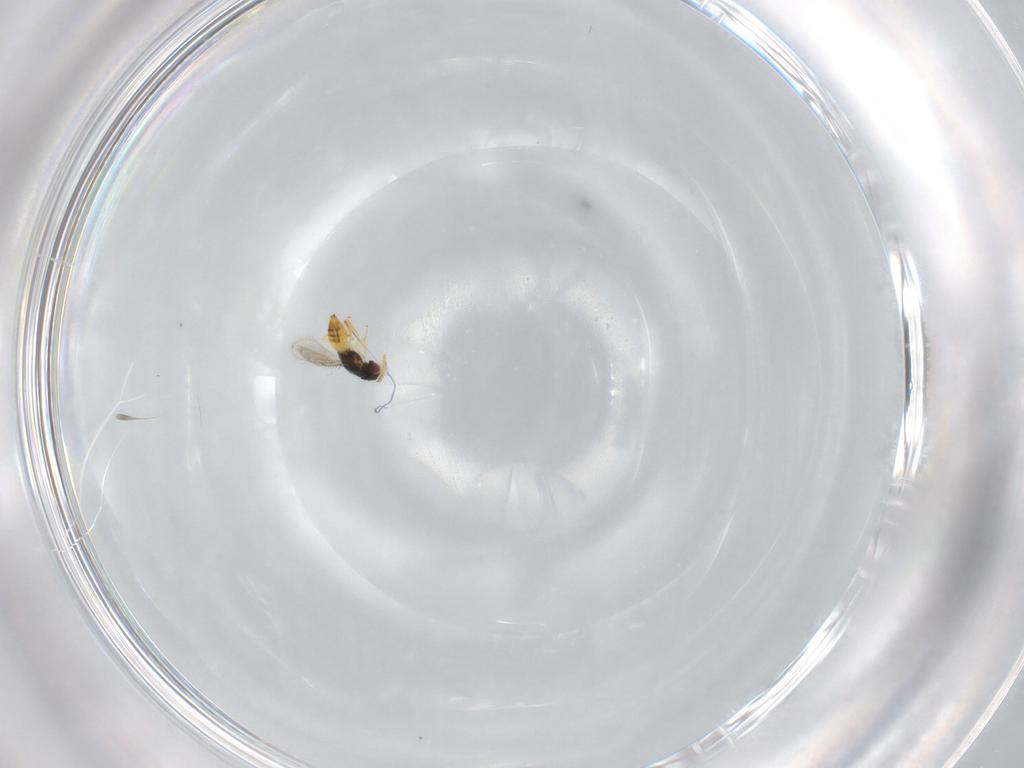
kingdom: Animalia
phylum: Arthropoda
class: Insecta
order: Hymenoptera
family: Eulophidae
